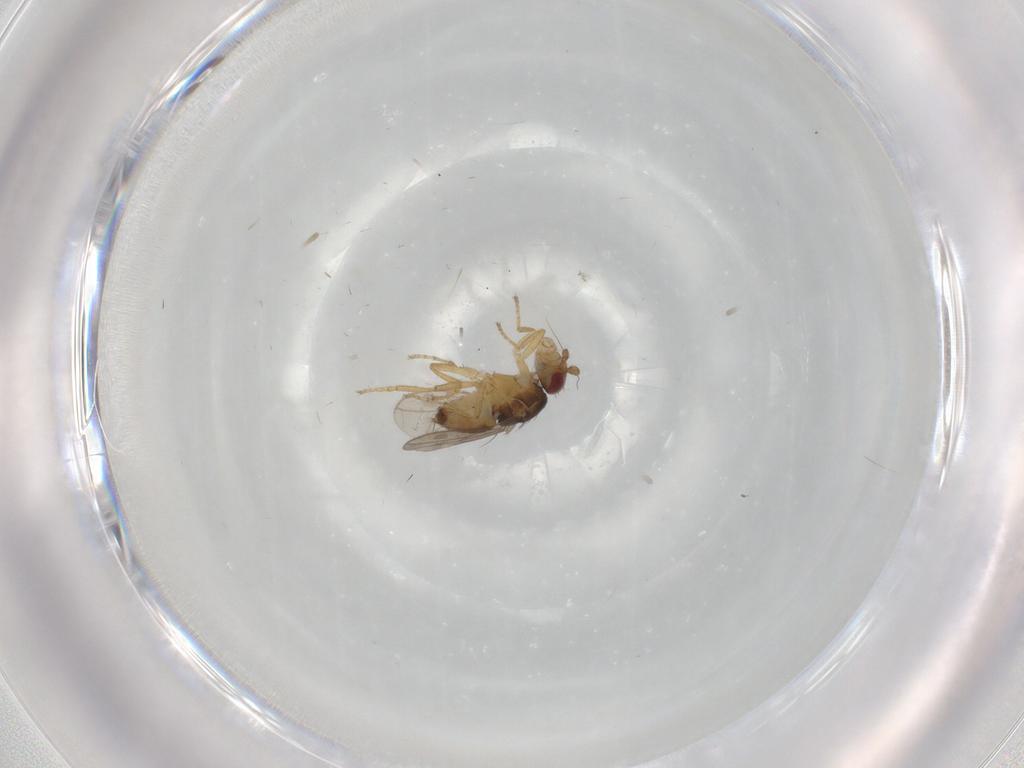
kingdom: Animalia
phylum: Arthropoda
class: Insecta
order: Diptera
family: Sphaeroceridae
